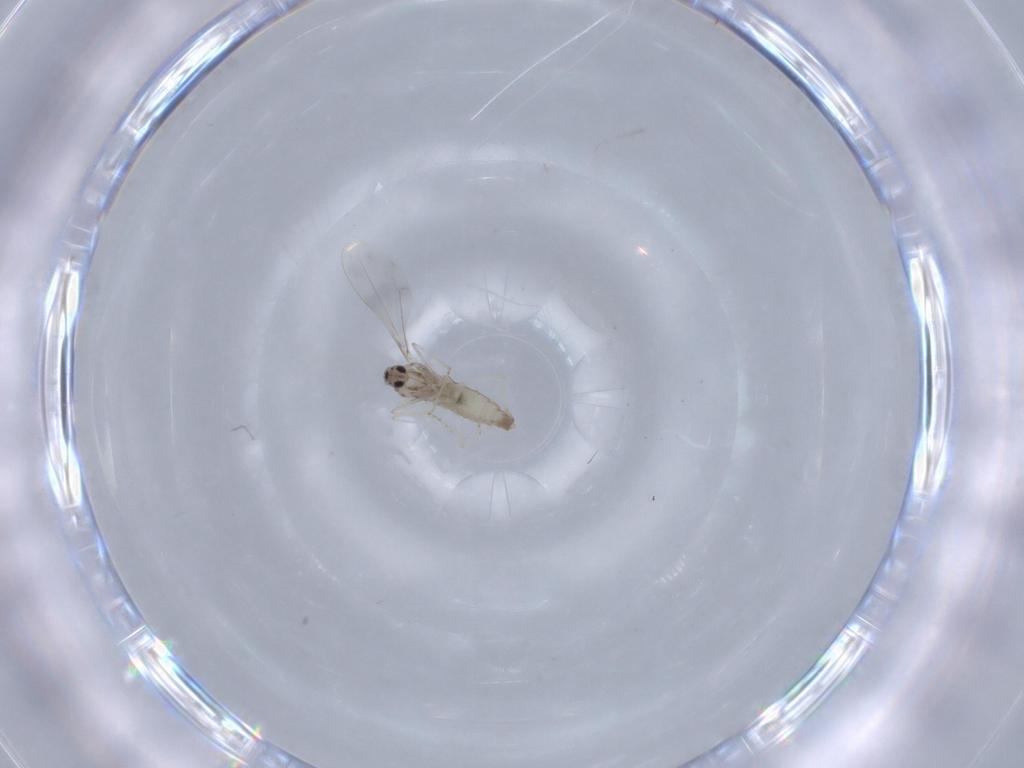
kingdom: Animalia
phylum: Arthropoda
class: Insecta
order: Diptera
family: Cecidomyiidae
